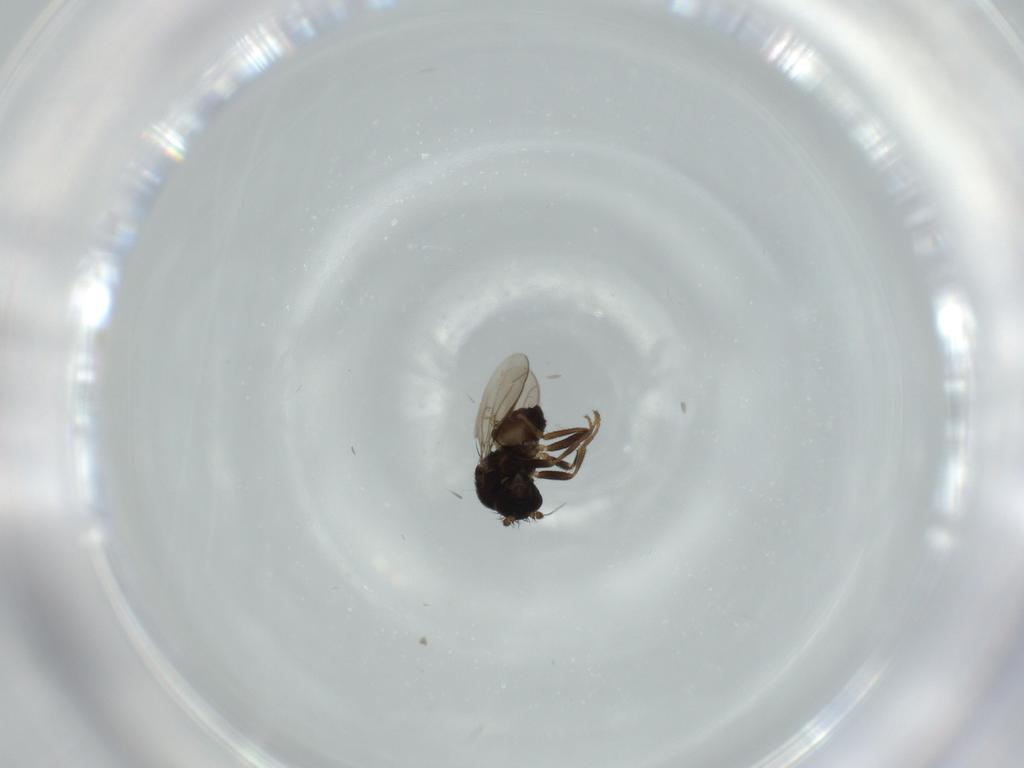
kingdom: Animalia
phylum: Arthropoda
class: Insecta
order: Diptera
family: Sphaeroceridae
